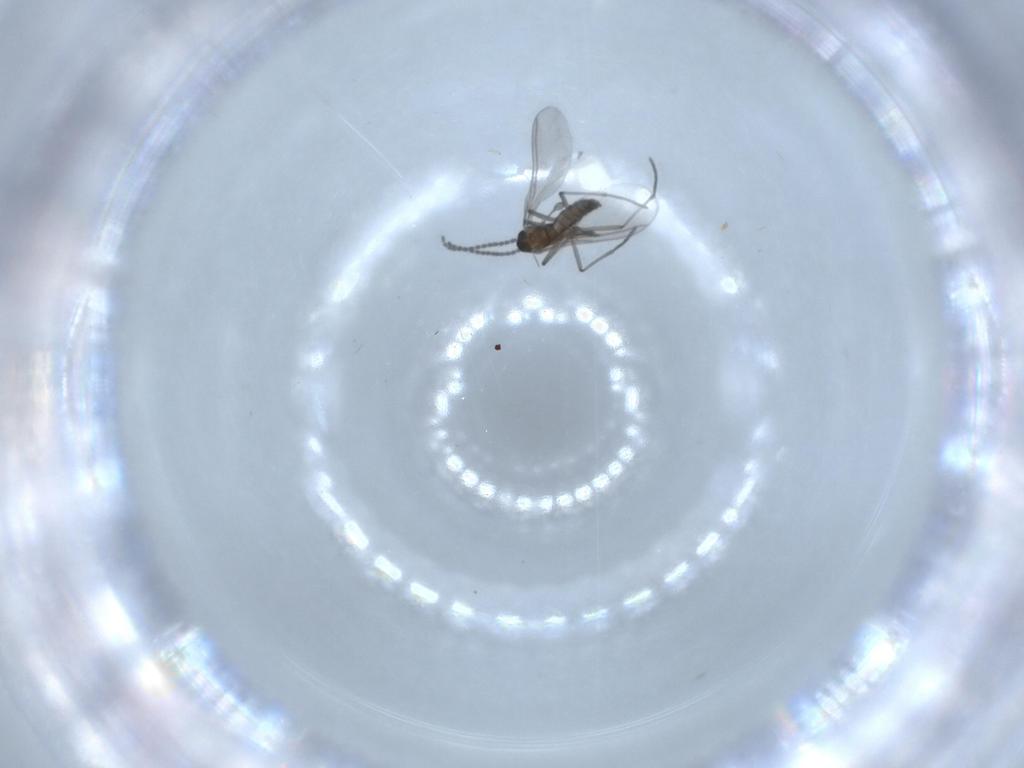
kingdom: Animalia
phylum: Arthropoda
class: Insecta
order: Diptera
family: Sciaridae
